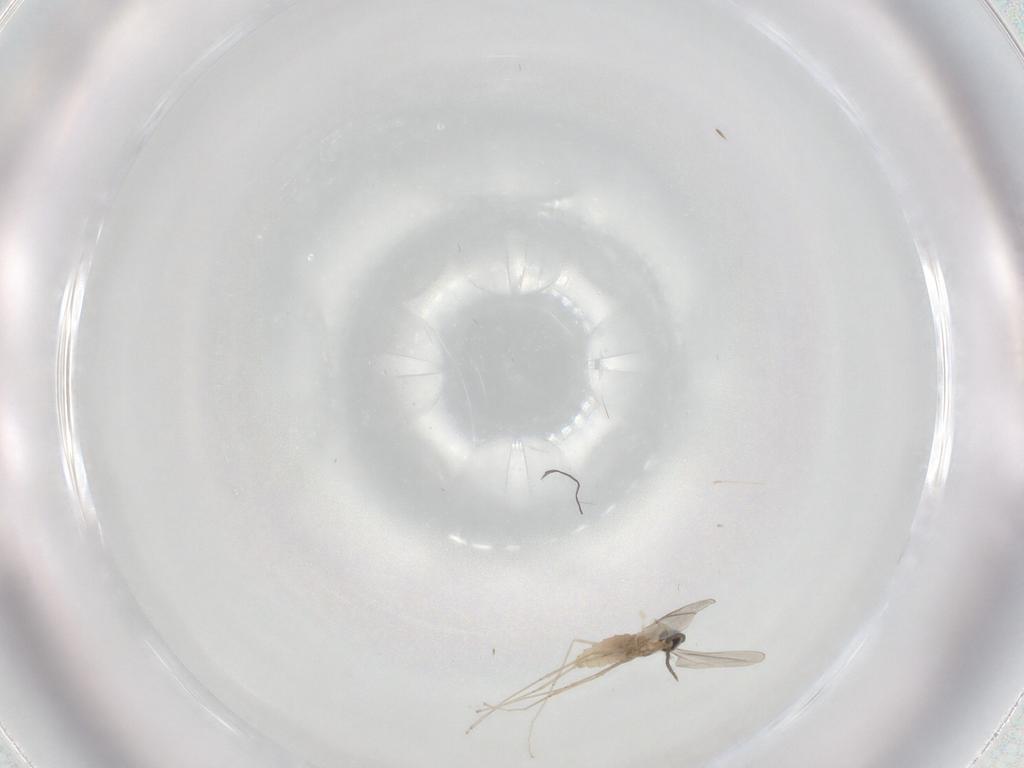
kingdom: Animalia
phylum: Arthropoda
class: Insecta
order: Diptera
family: Cecidomyiidae
